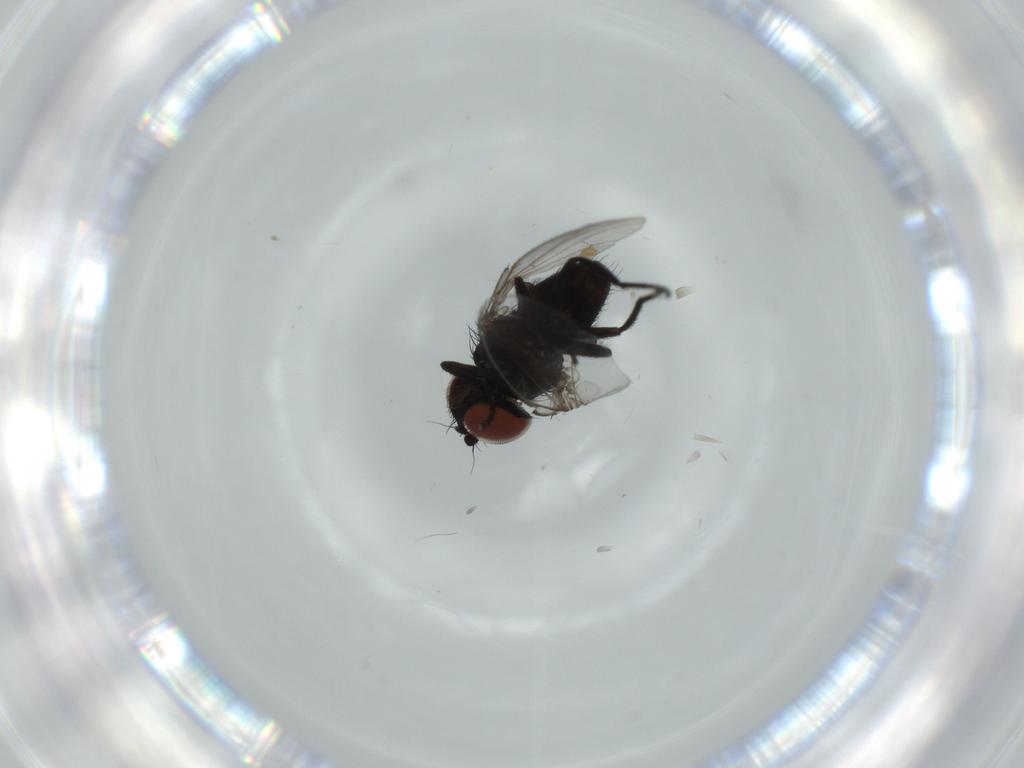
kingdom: Animalia
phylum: Arthropoda
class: Insecta
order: Diptera
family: Milichiidae
